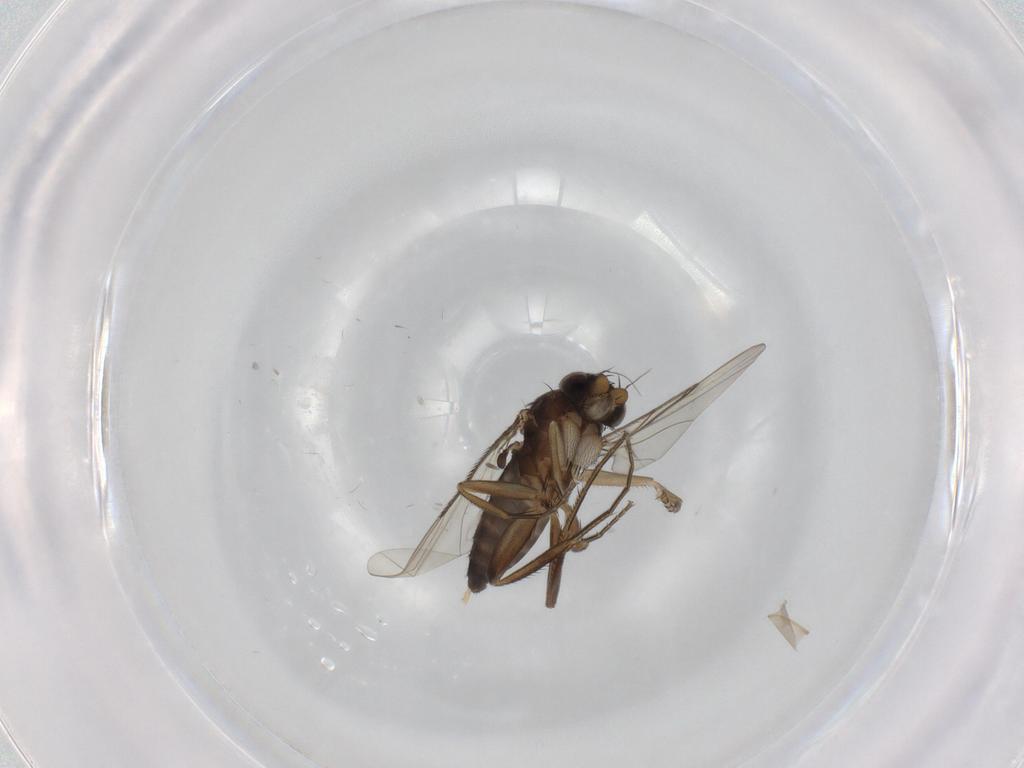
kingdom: Animalia
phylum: Arthropoda
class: Insecta
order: Diptera
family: Phoridae
